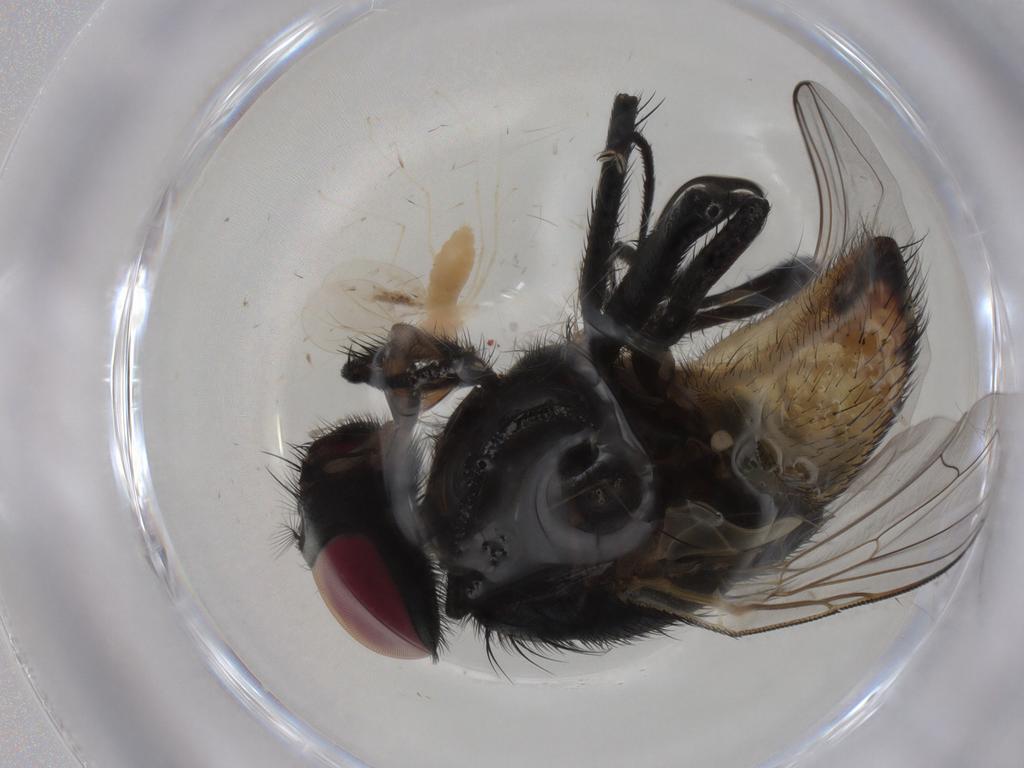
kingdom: Animalia
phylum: Arthropoda
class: Insecta
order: Diptera
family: Cecidomyiidae
